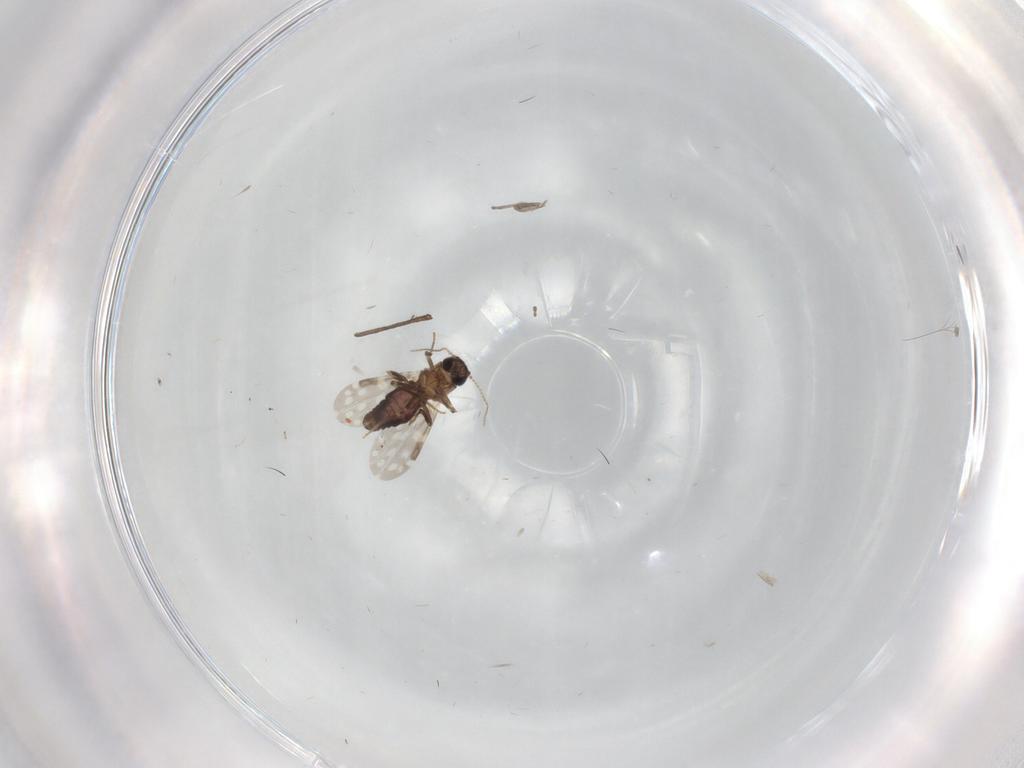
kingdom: Animalia
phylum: Arthropoda
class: Insecta
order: Diptera
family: Ceratopogonidae
